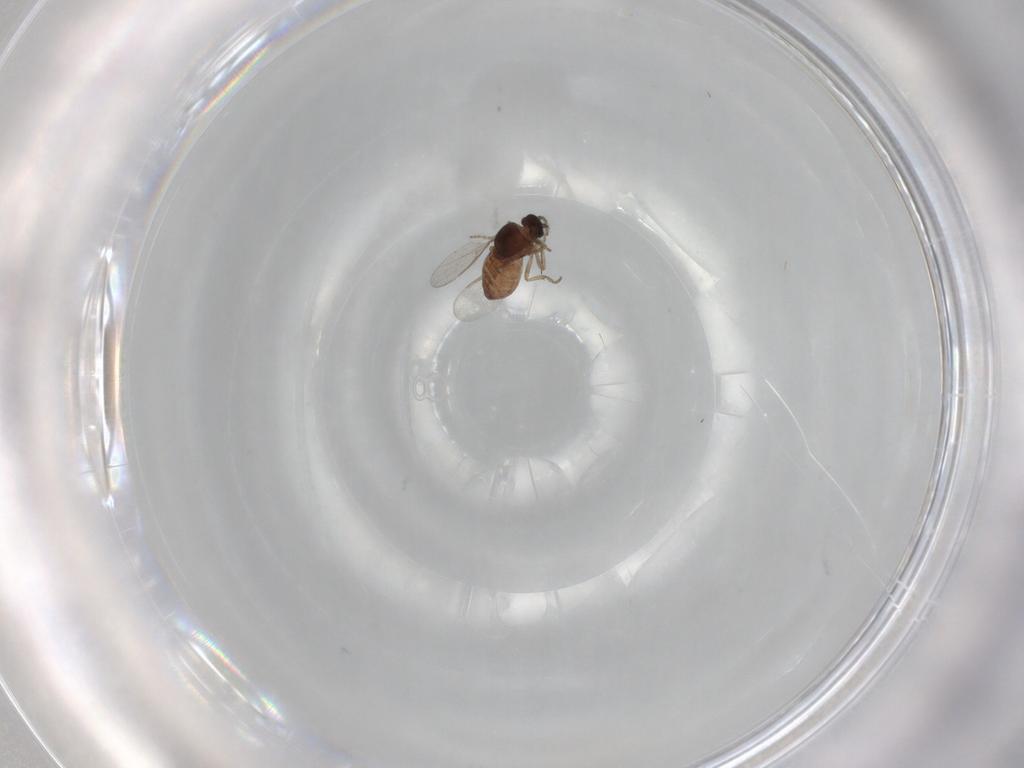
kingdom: Animalia
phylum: Arthropoda
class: Insecta
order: Diptera
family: Ceratopogonidae
